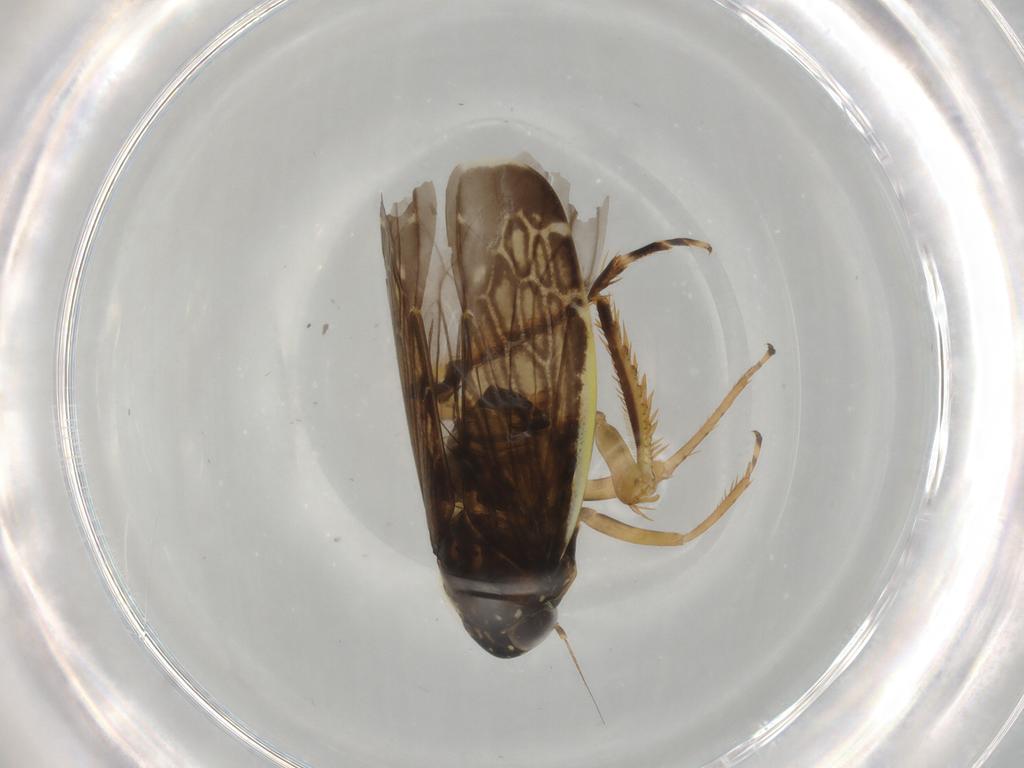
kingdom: Animalia
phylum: Arthropoda
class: Insecta
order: Hemiptera
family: Cicadellidae
